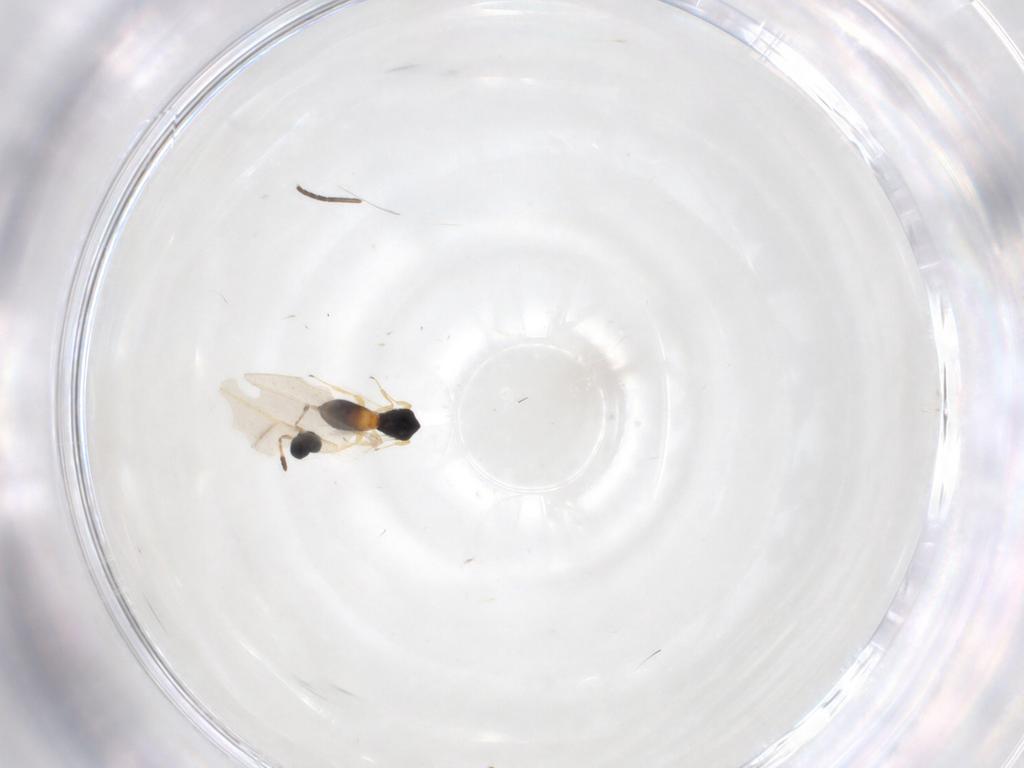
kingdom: Animalia
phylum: Arthropoda
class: Insecta
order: Hymenoptera
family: Scelionidae
